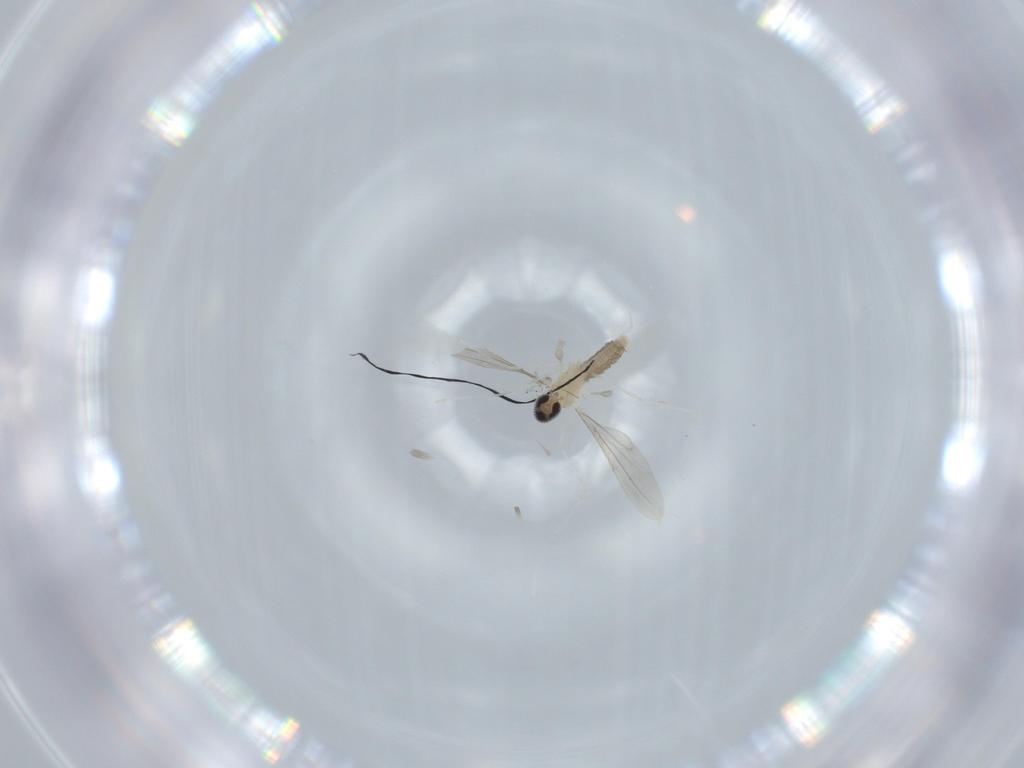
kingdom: Animalia
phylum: Arthropoda
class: Insecta
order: Diptera
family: Cecidomyiidae
